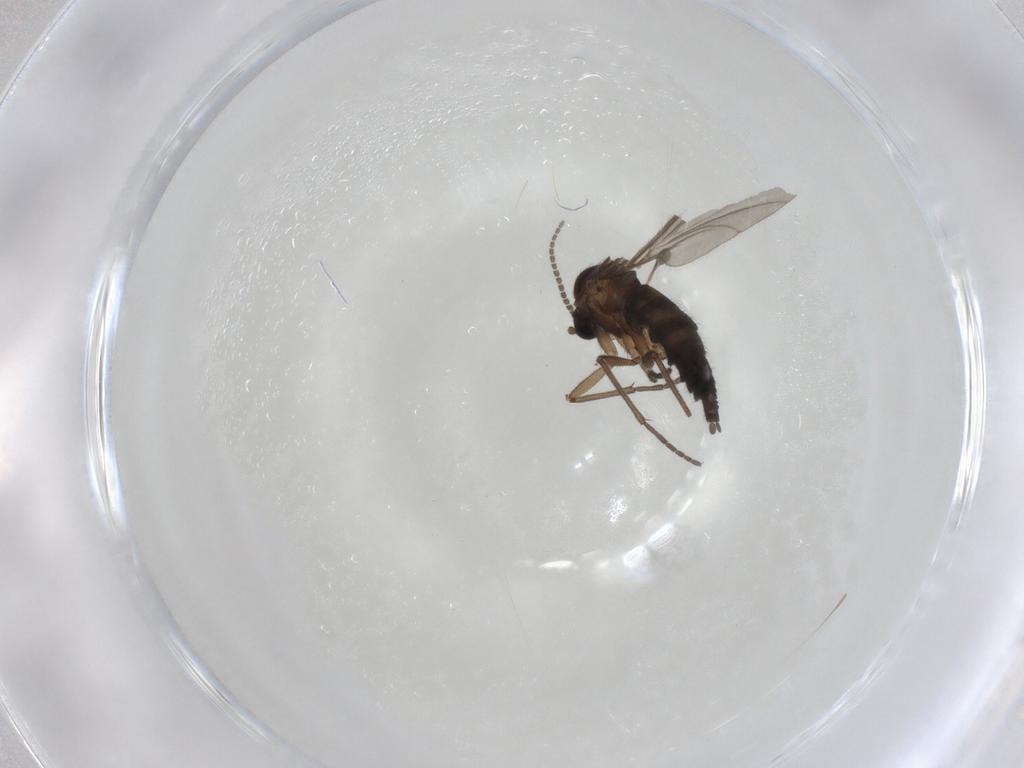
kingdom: Animalia
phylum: Arthropoda
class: Insecta
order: Diptera
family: Sciaridae
